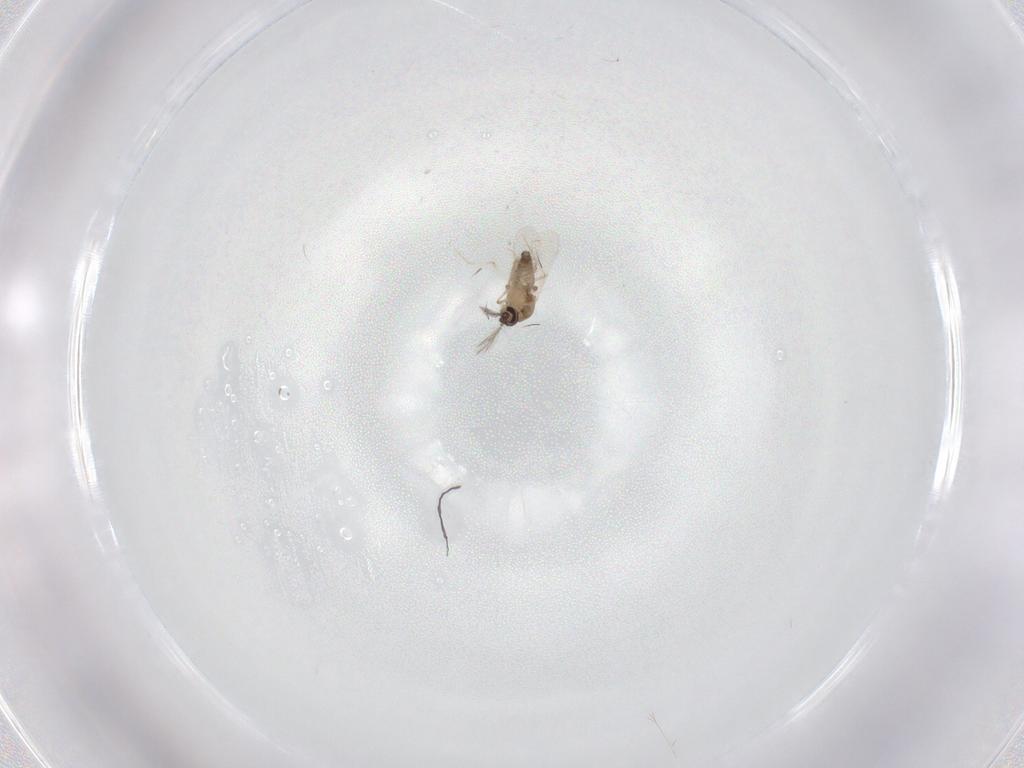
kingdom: Animalia
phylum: Arthropoda
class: Insecta
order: Diptera
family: Ceratopogonidae
